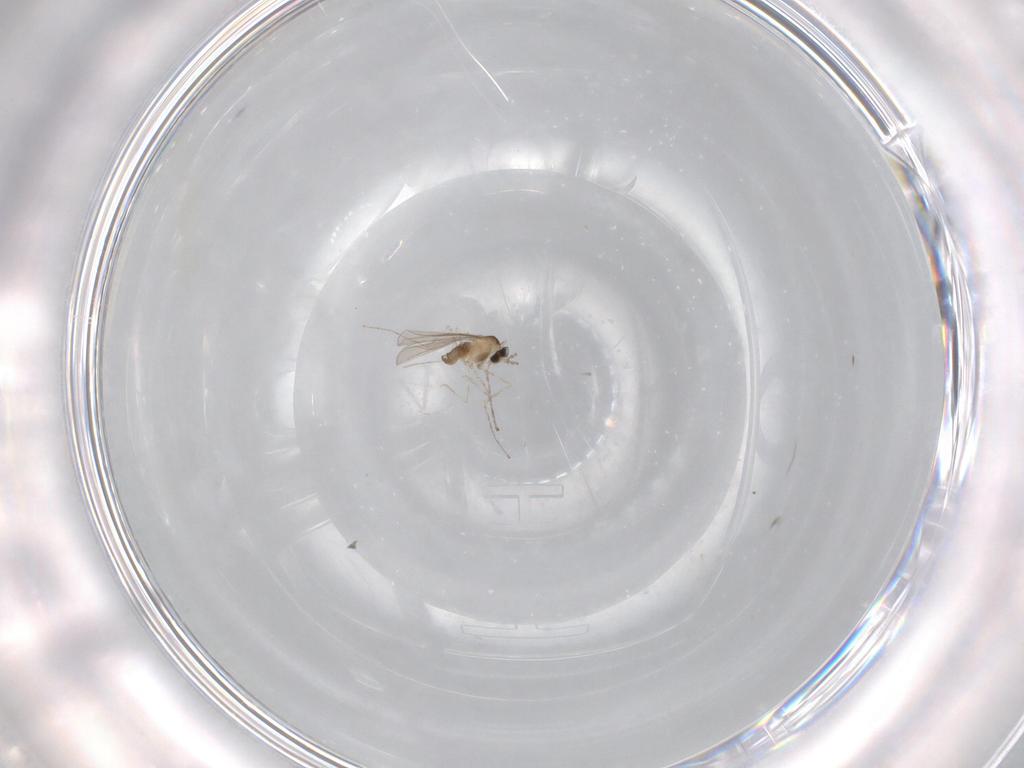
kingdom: Animalia
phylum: Arthropoda
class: Insecta
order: Diptera
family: Cecidomyiidae
